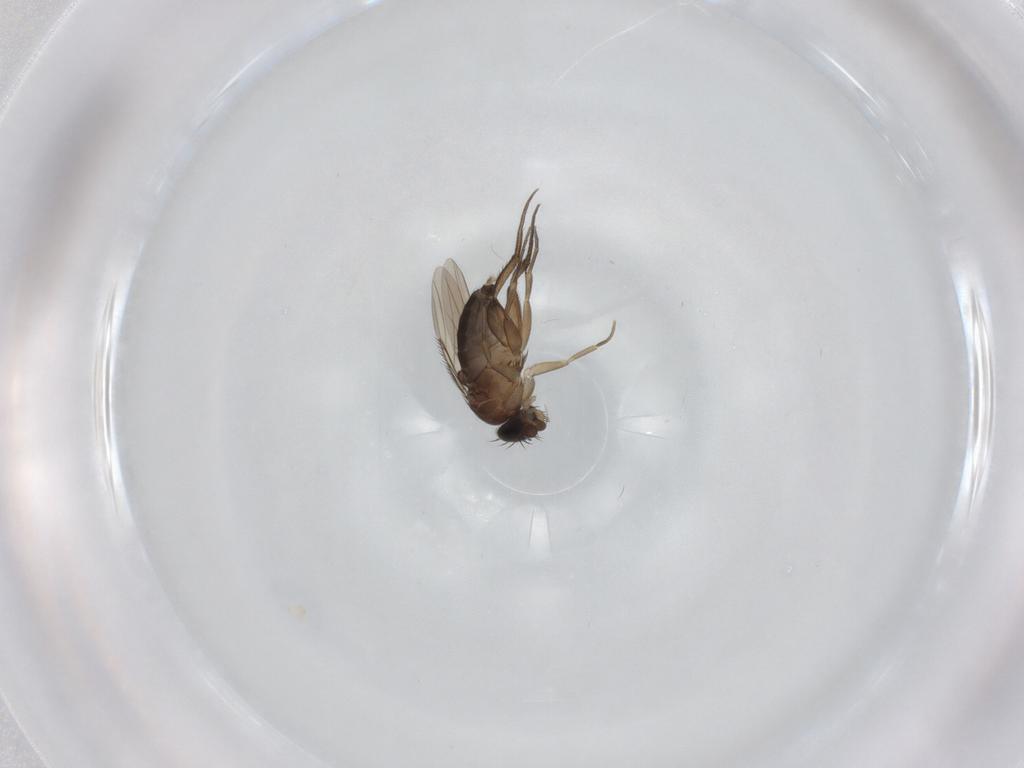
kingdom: Animalia
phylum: Arthropoda
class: Insecta
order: Diptera
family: Phoridae
